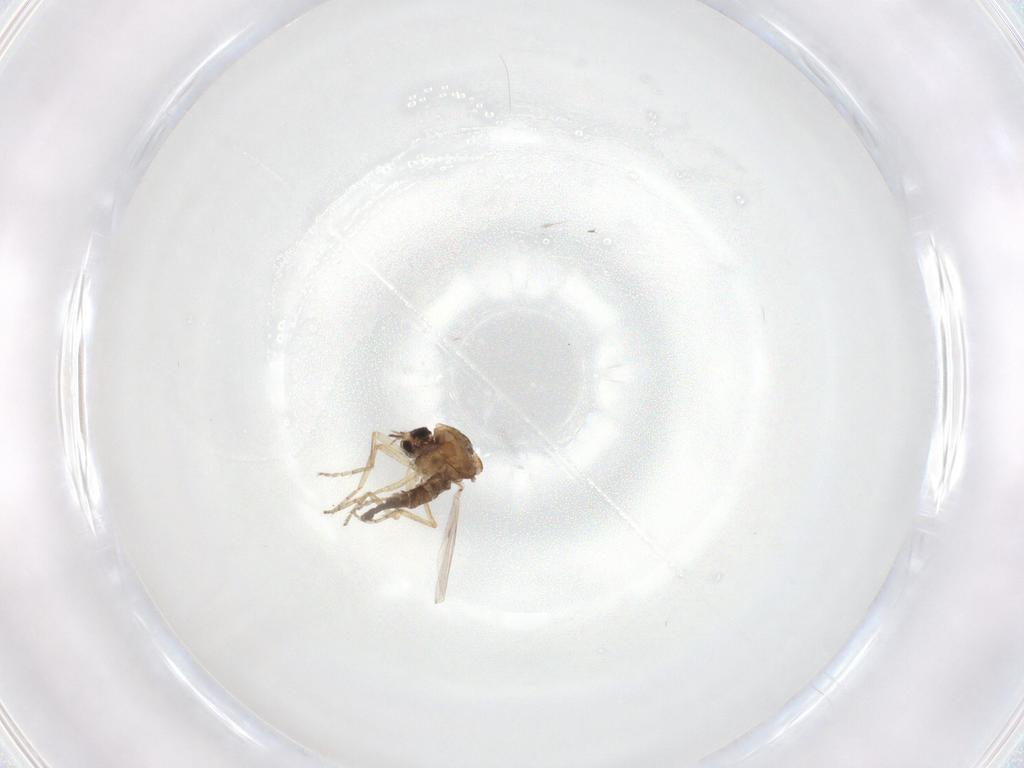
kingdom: Animalia
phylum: Arthropoda
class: Insecta
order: Diptera
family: Ceratopogonidae
